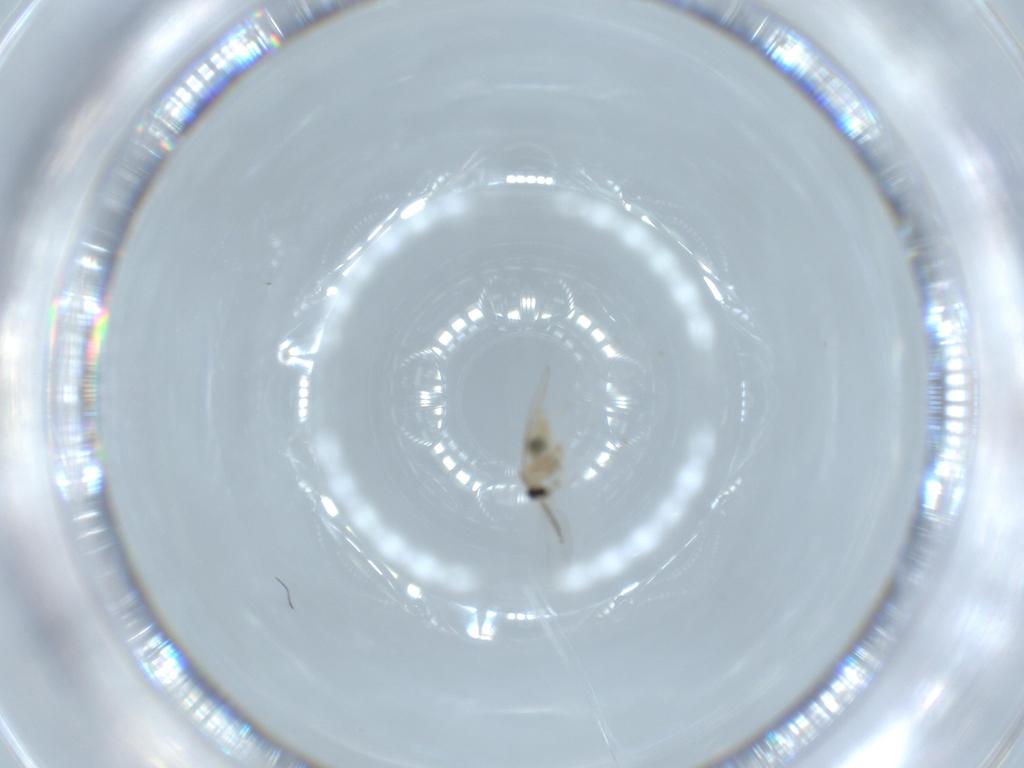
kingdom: Animalia
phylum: Arthropoda
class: Insecta
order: Diptera
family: Cecidomyiidae
